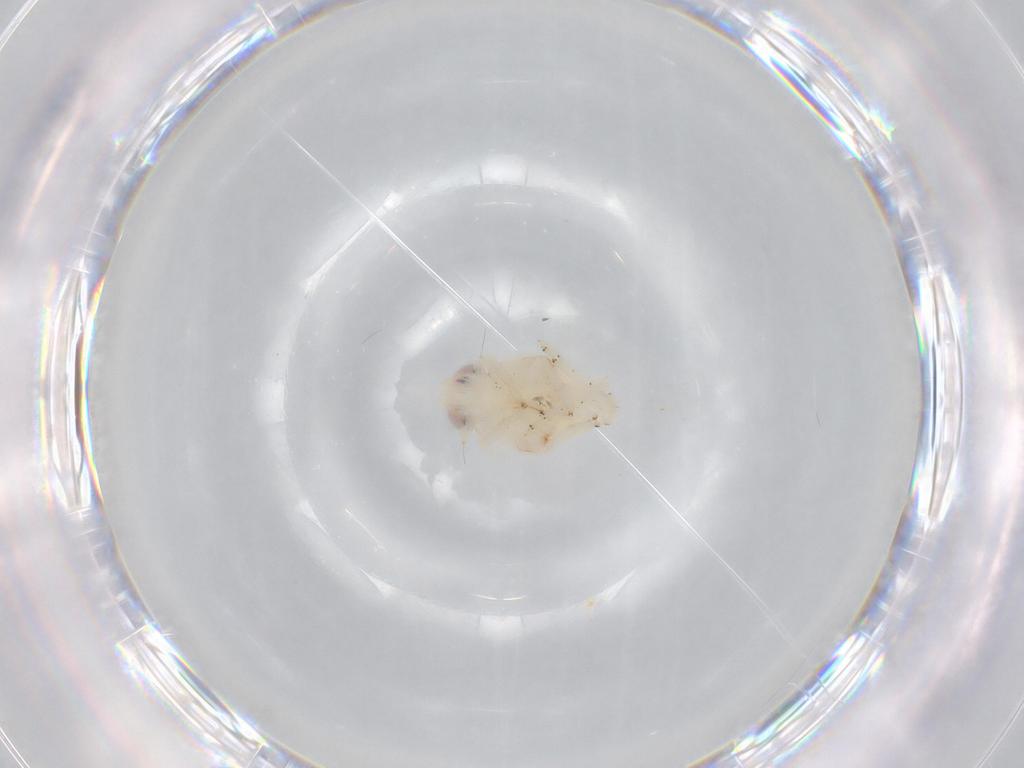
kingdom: Animalia
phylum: Arthropoda
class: Insecta
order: Hemiptera
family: Nogodinidae
